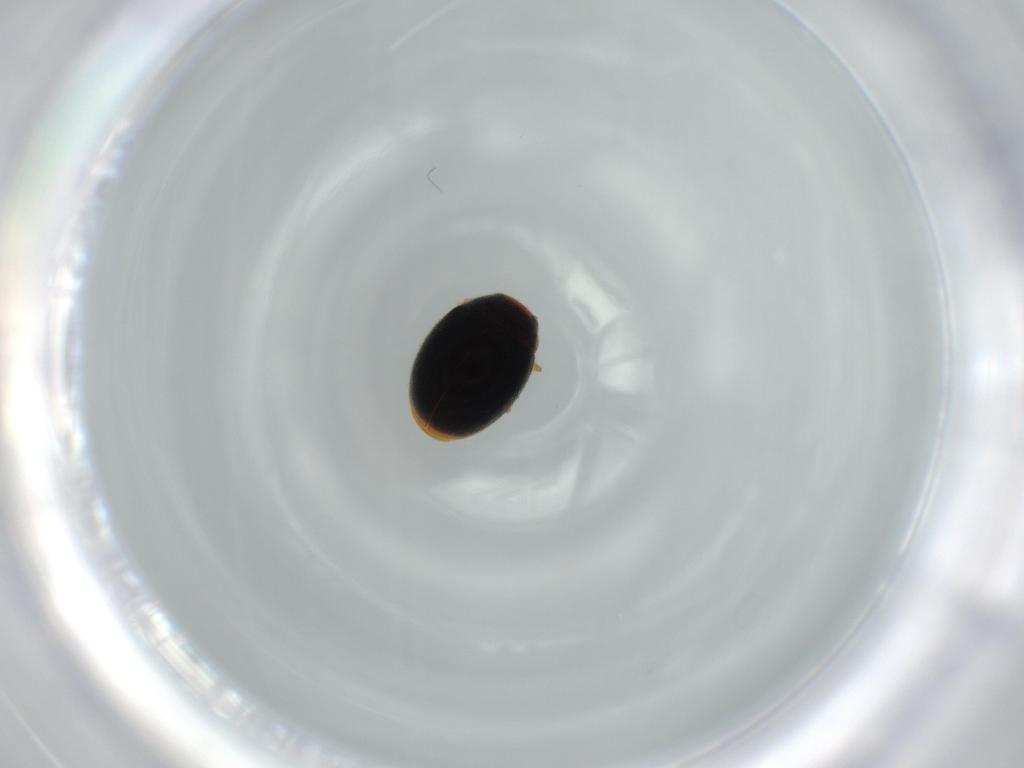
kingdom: Animalia
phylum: Arthropoda
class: Insecta
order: Coleoptera
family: Coccinellidae
